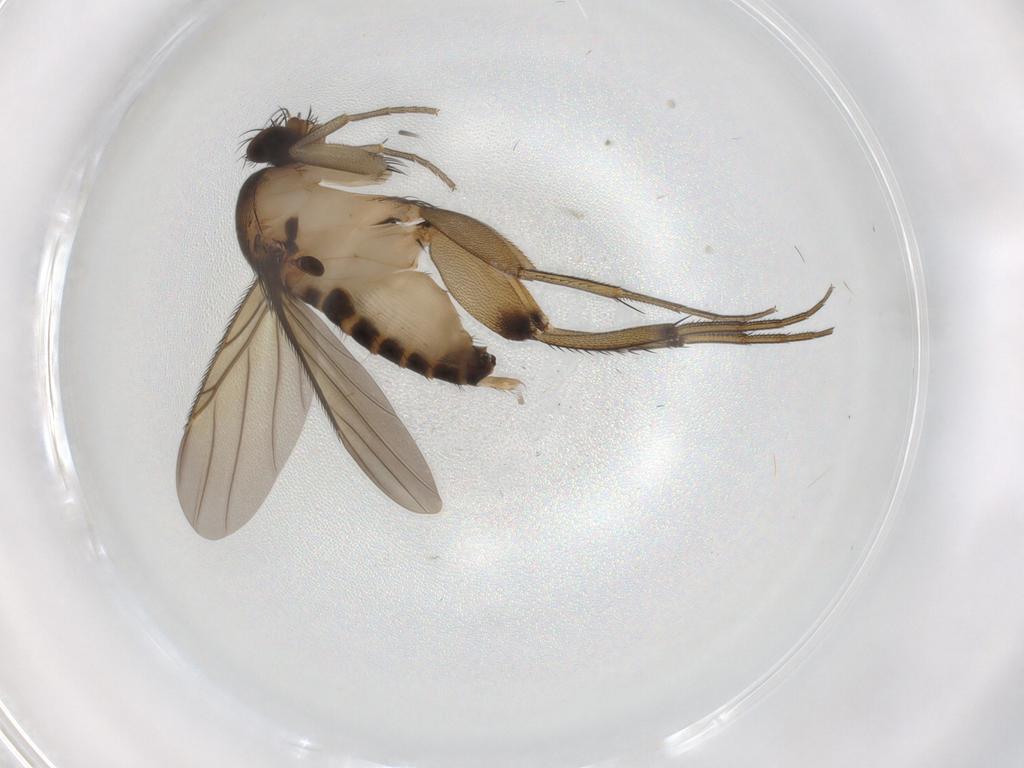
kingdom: Animalia
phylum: Arthropoda
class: Insecta
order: Diptera
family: Phoridae
